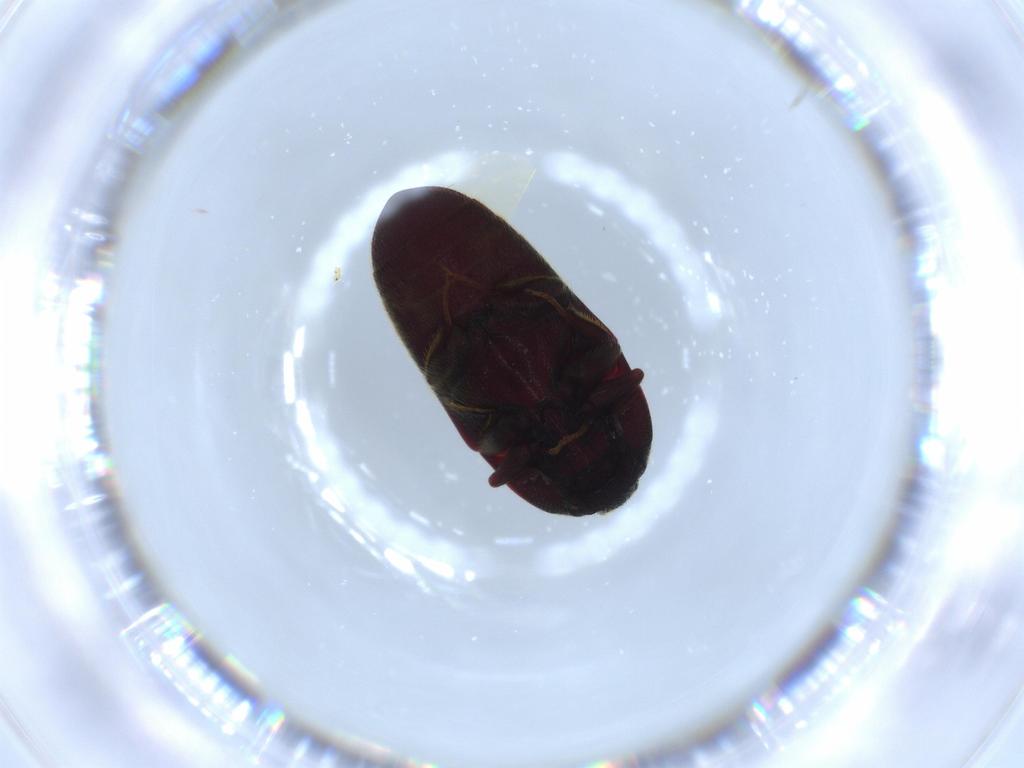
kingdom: Animalia
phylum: Arthropoda
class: Insecta
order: Coleoptera
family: Throscidae
